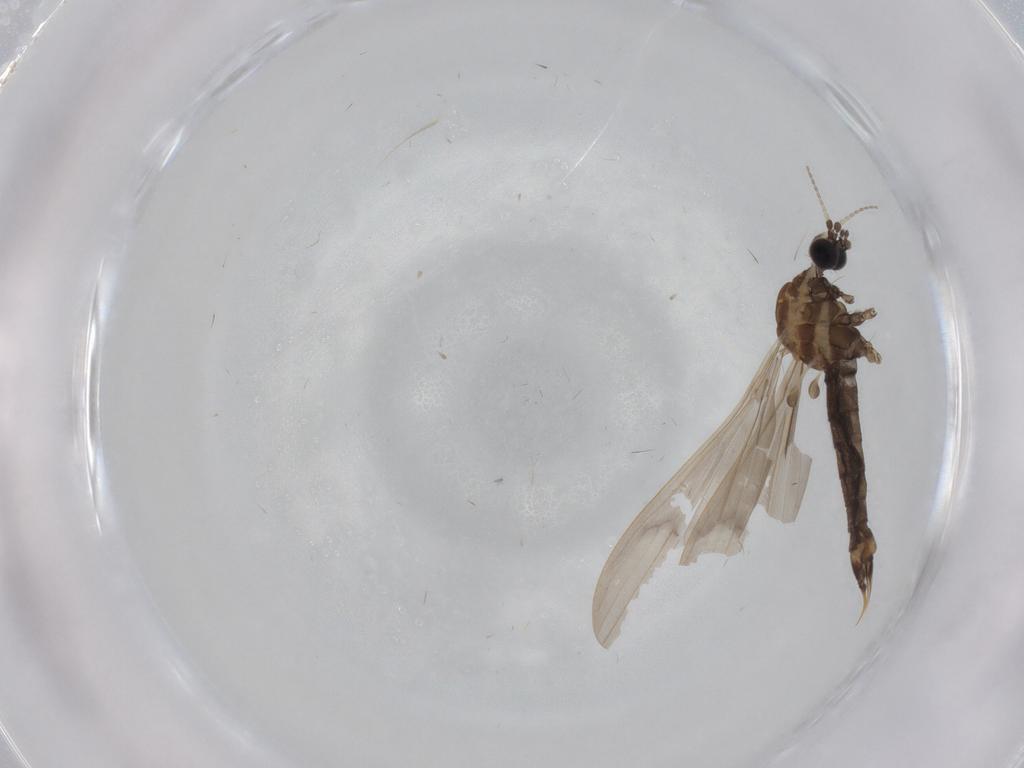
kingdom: Animalia
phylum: Arthropoda
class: Insecta
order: Diptera
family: Limoniidae
